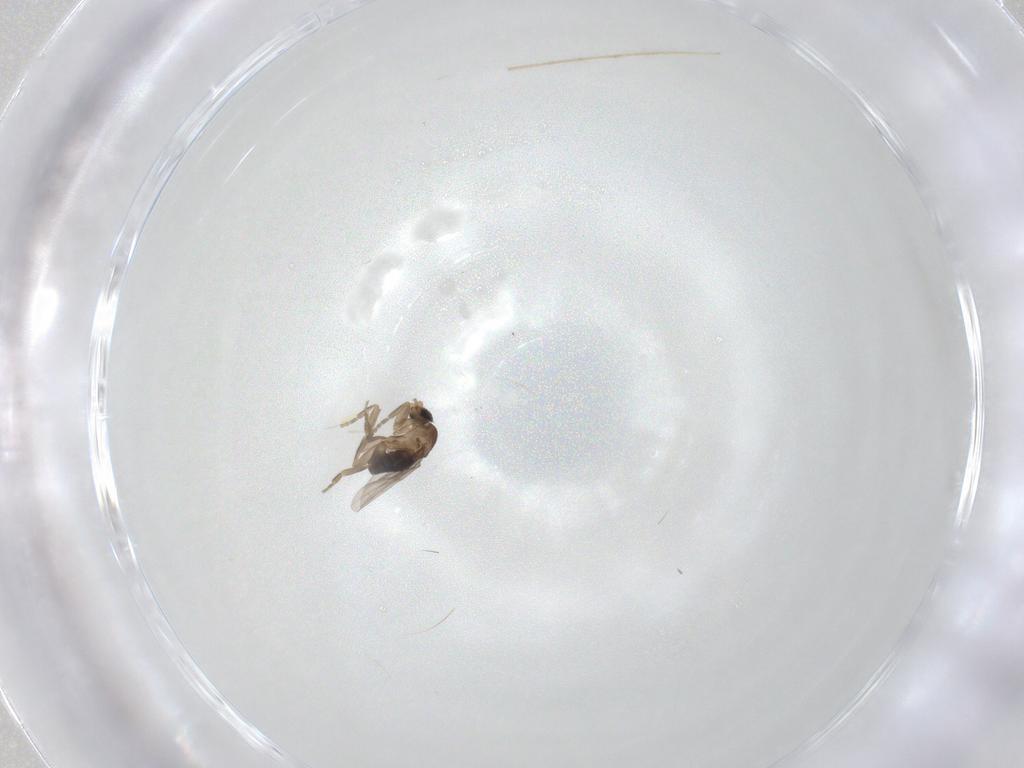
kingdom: Animalia
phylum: Arthropoda
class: Insecta
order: Diptera
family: Chironomidae
